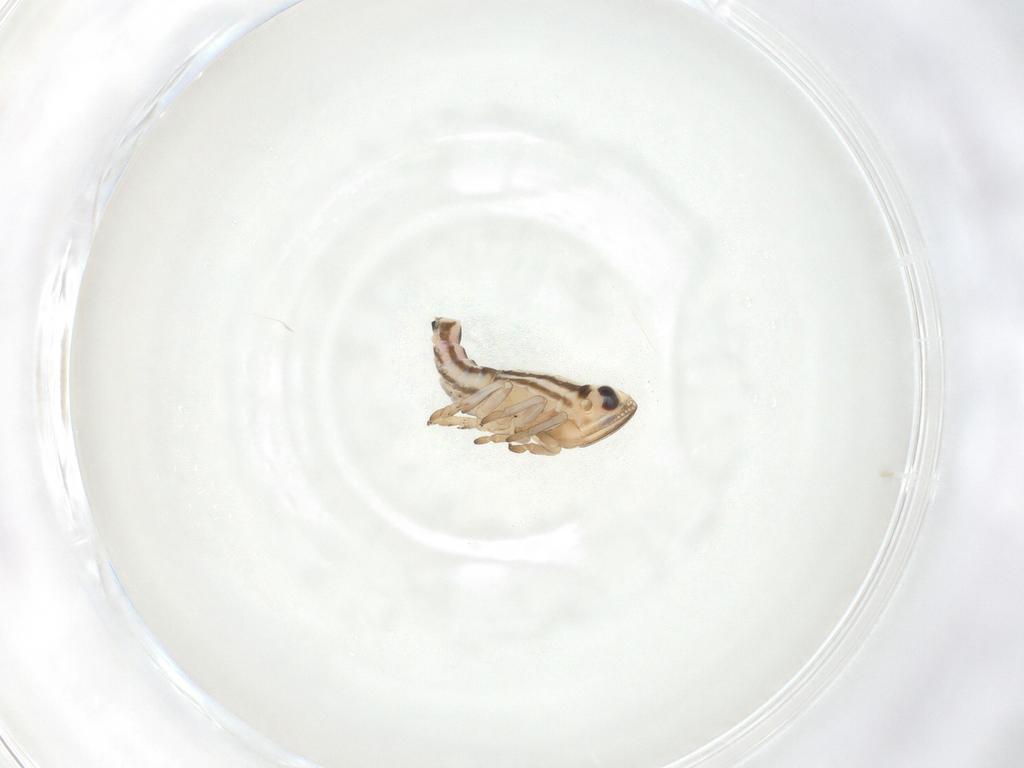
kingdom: Animalia
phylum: Arthropoda
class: Insecta
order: Hemiptera
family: Fulgoroidea_incertae_sedis
